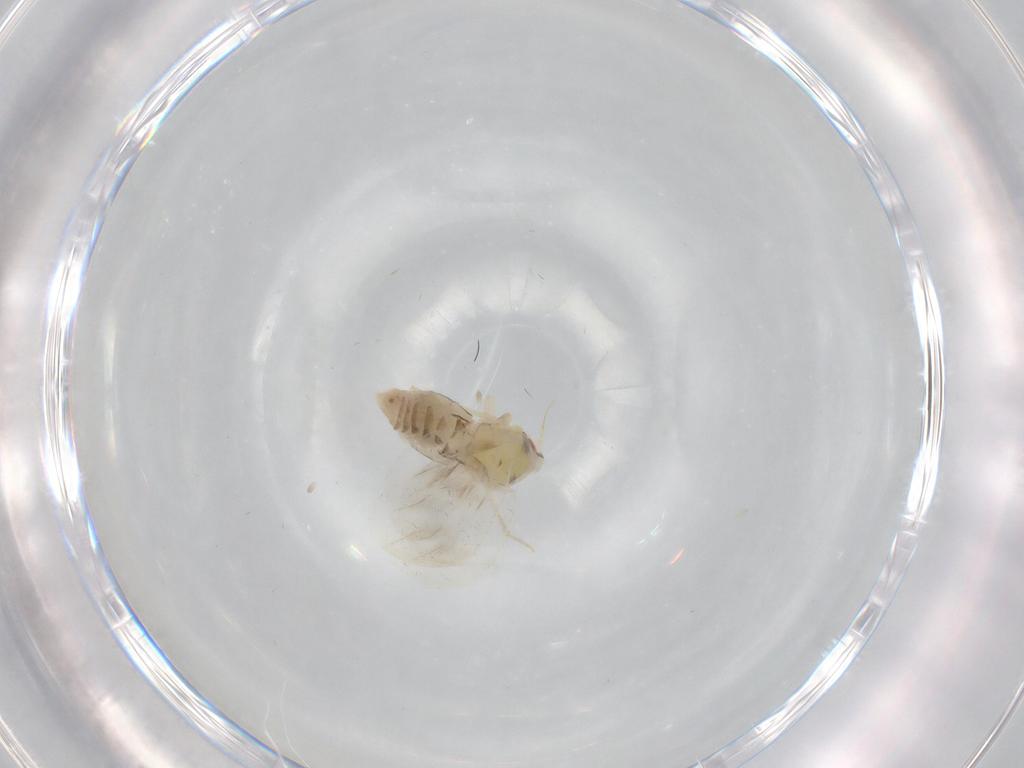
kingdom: Animalia
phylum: Arthropoda
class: Insecta
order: Hemiptera
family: Aleyrodidae
